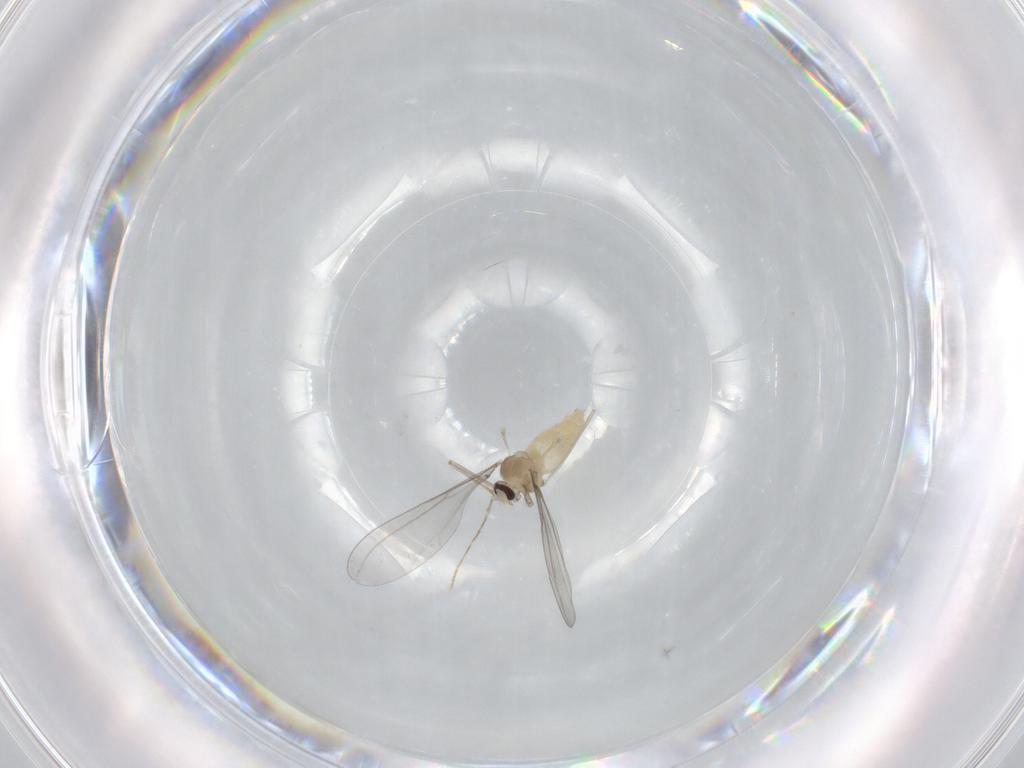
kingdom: Animalia
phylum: Arthropoda
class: Insecta
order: Diptera
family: Cecidomyiidae
